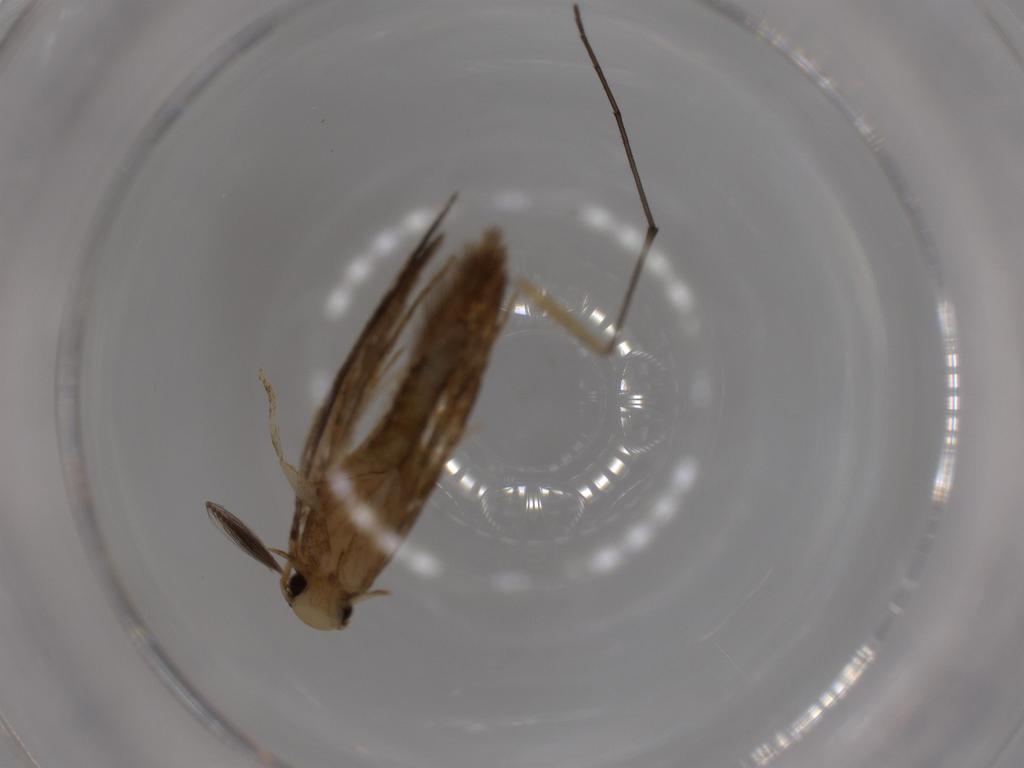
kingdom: Animalia
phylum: Arthropoda
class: Insecta
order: Lepidoptera
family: Tineidae
